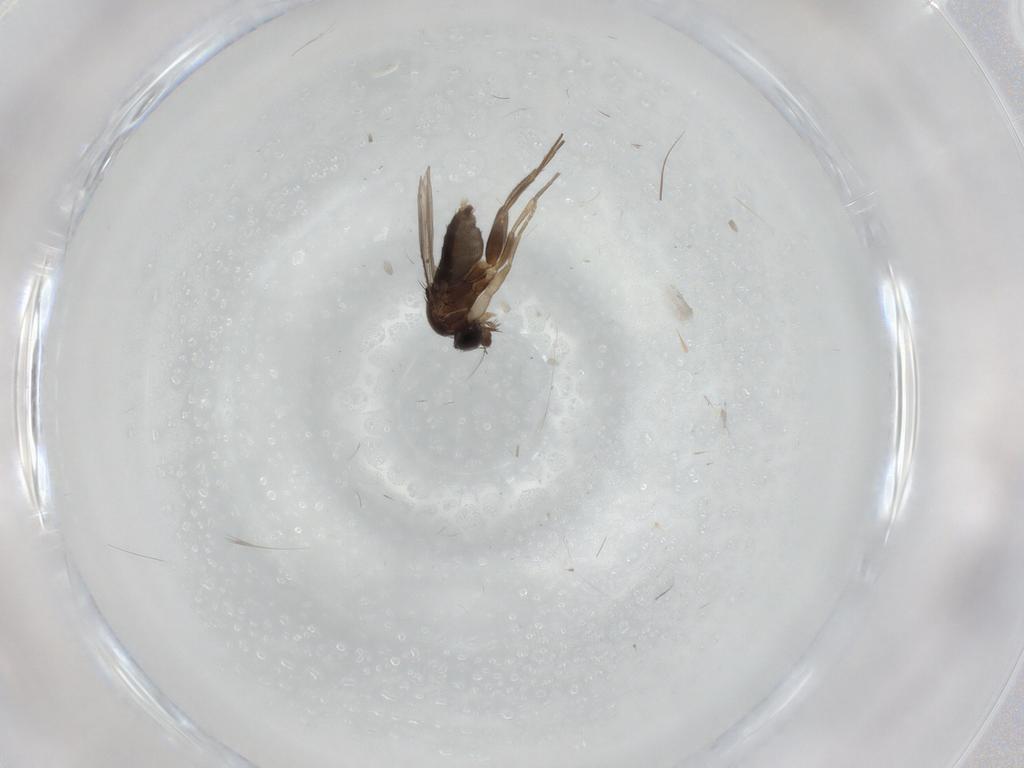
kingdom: Animalia
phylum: Arthropoda
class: Insecta
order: Diptera
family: Phoridae
